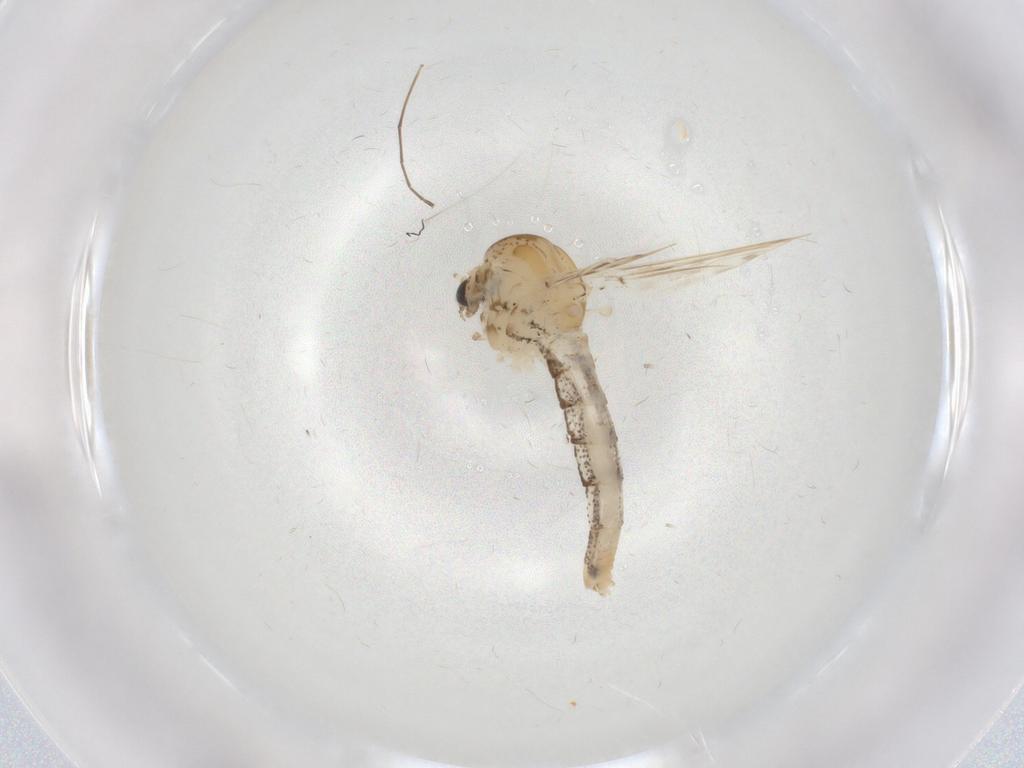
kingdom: Animalia
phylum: Arthropoda
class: Insecta
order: Diptera
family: Chaoboridae
